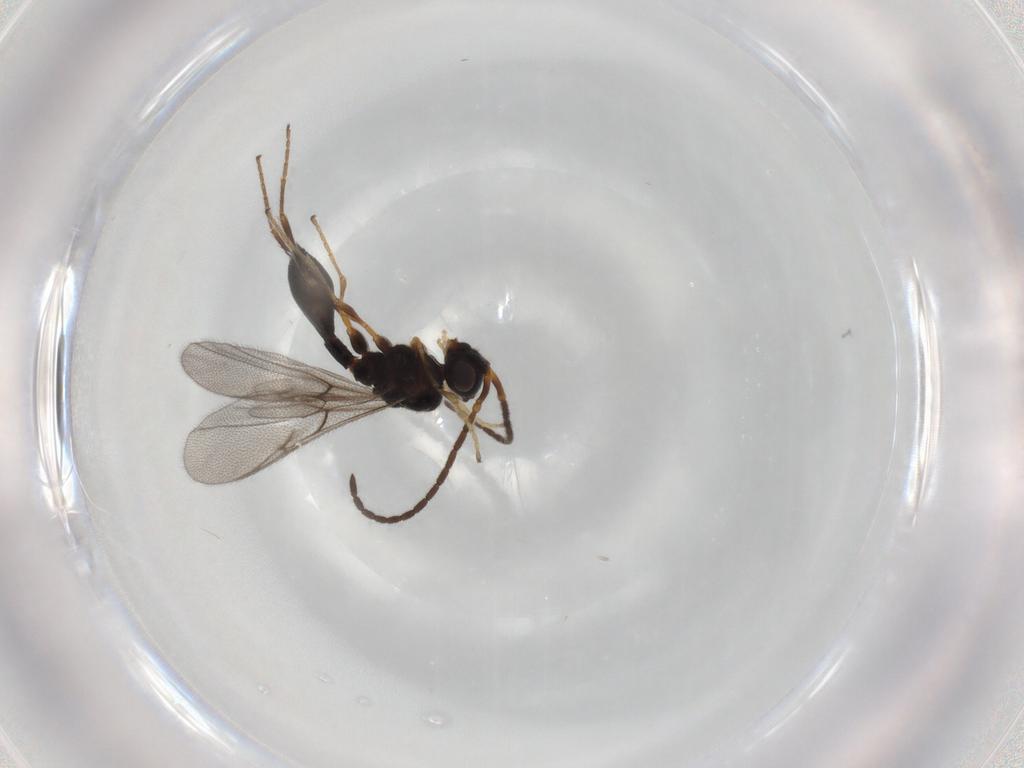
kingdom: Animalia
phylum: Arthropoda
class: Insecta
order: Hymenoptera
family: Diapriidae
